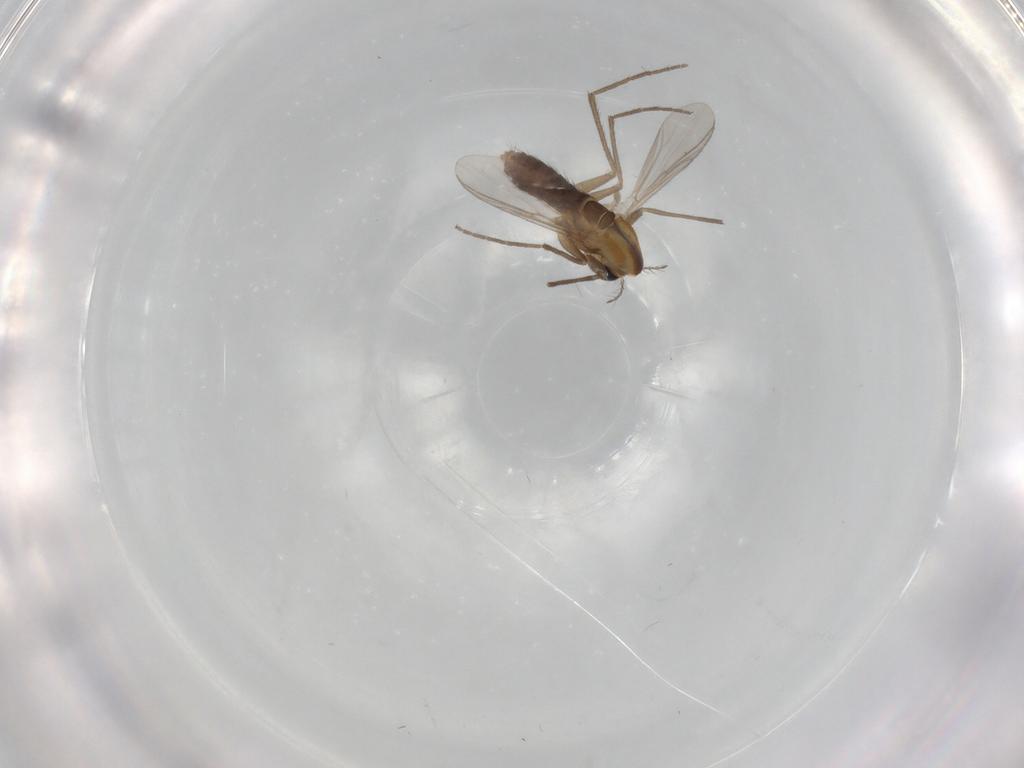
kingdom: Animalia
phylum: Arthropoda
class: Insecta
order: Diptera
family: Chironomidae
